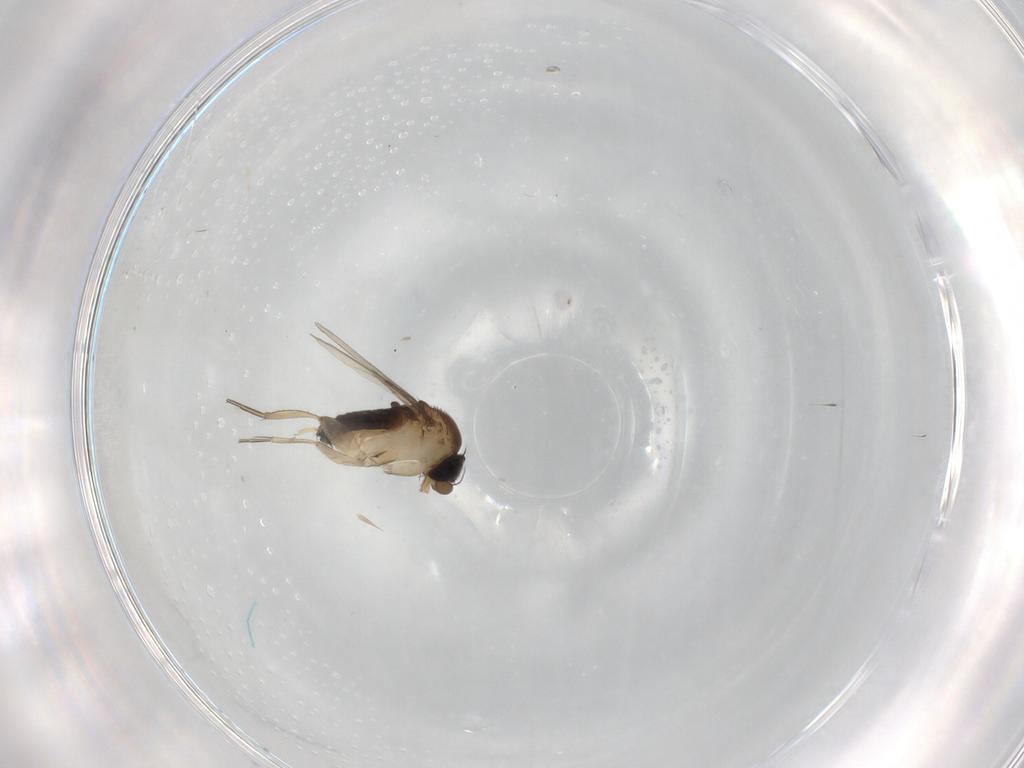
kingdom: Animalia
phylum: Arthropoda
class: Insecta
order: Diptera
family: Phoridae
